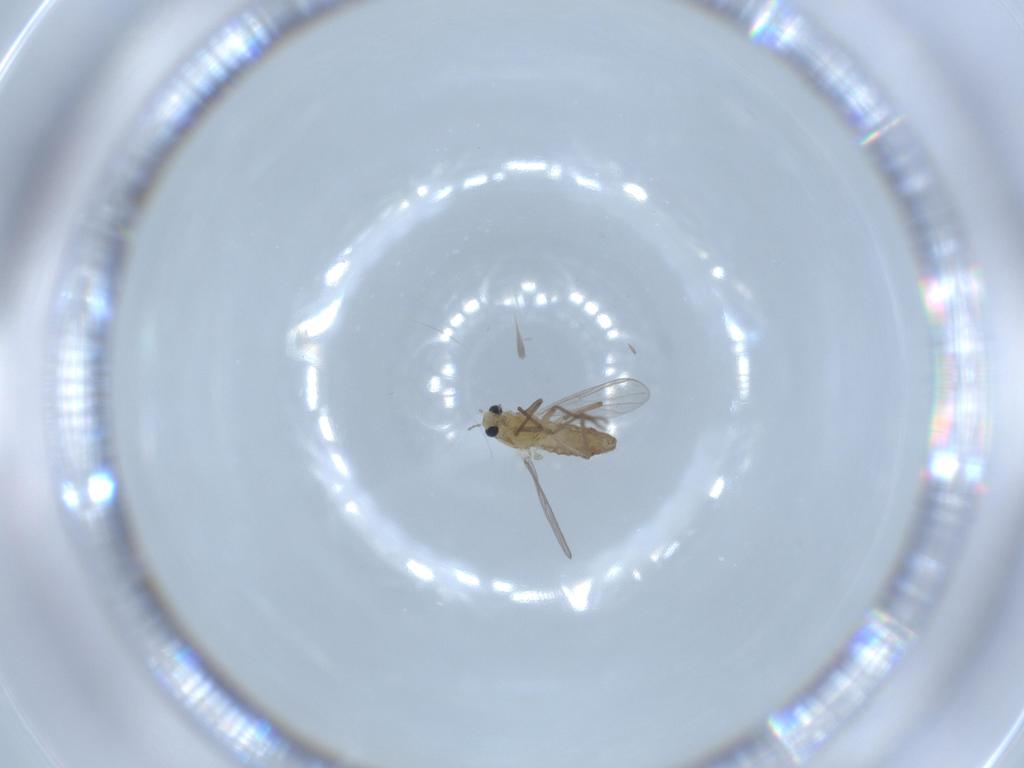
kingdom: Animalia
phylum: Arthropoda
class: Insecta
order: Diptera
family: Chironomidae
